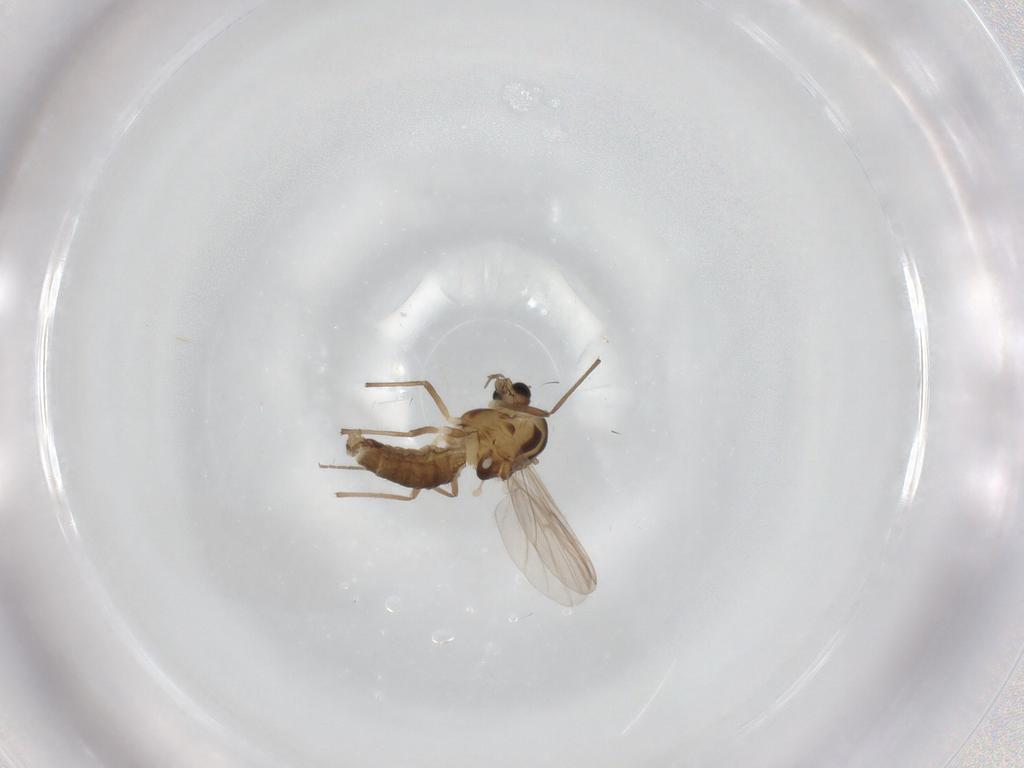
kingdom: Animalia
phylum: Arthropoda
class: Insecta
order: Diptera
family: Chironomidae
